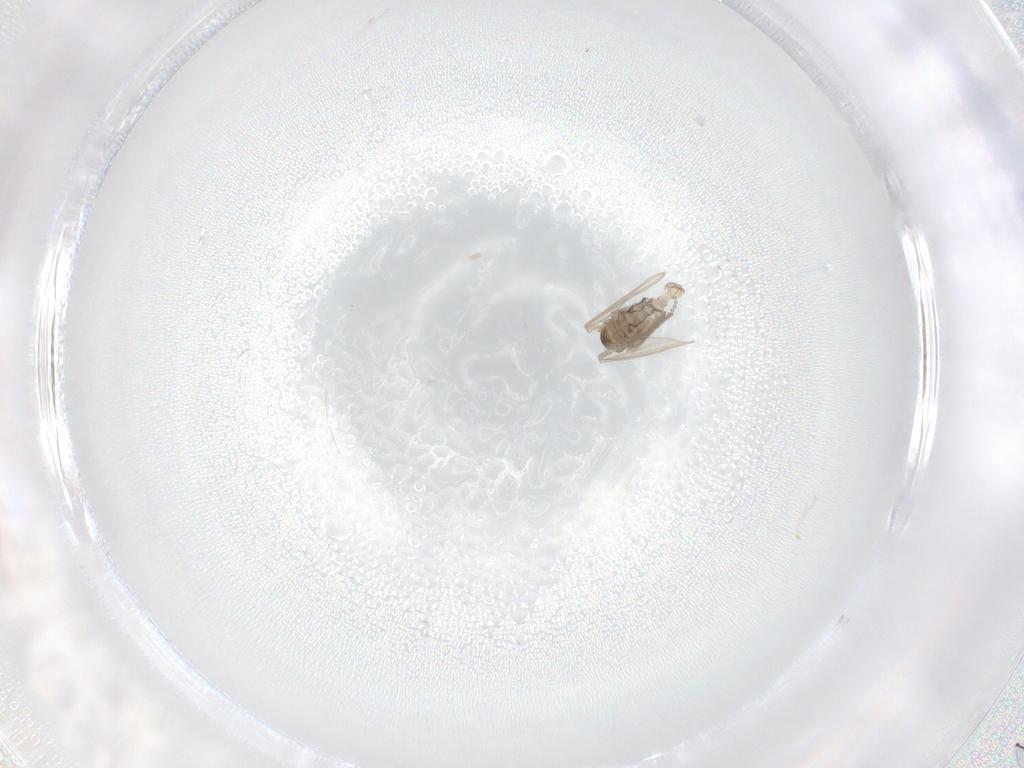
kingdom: Animalia
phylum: Arthropoda
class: Insecta
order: Diptera
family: Psychodidae
